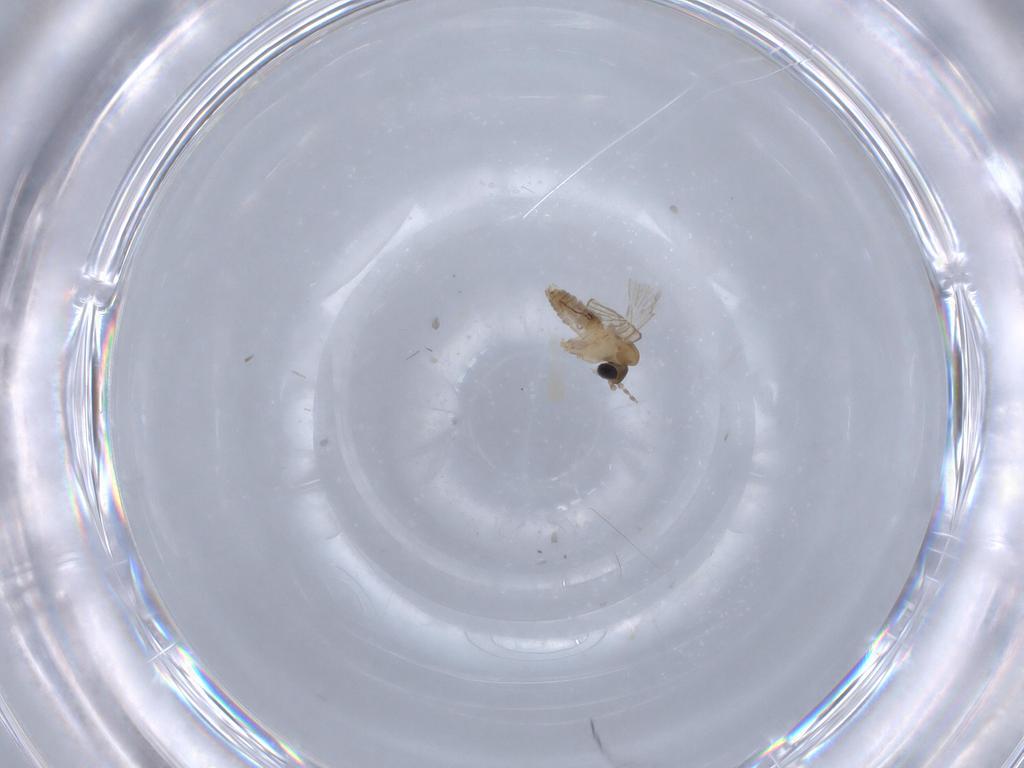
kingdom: Animalia
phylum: Arthropoda
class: Insecta
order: Diptera
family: Psychodidae
